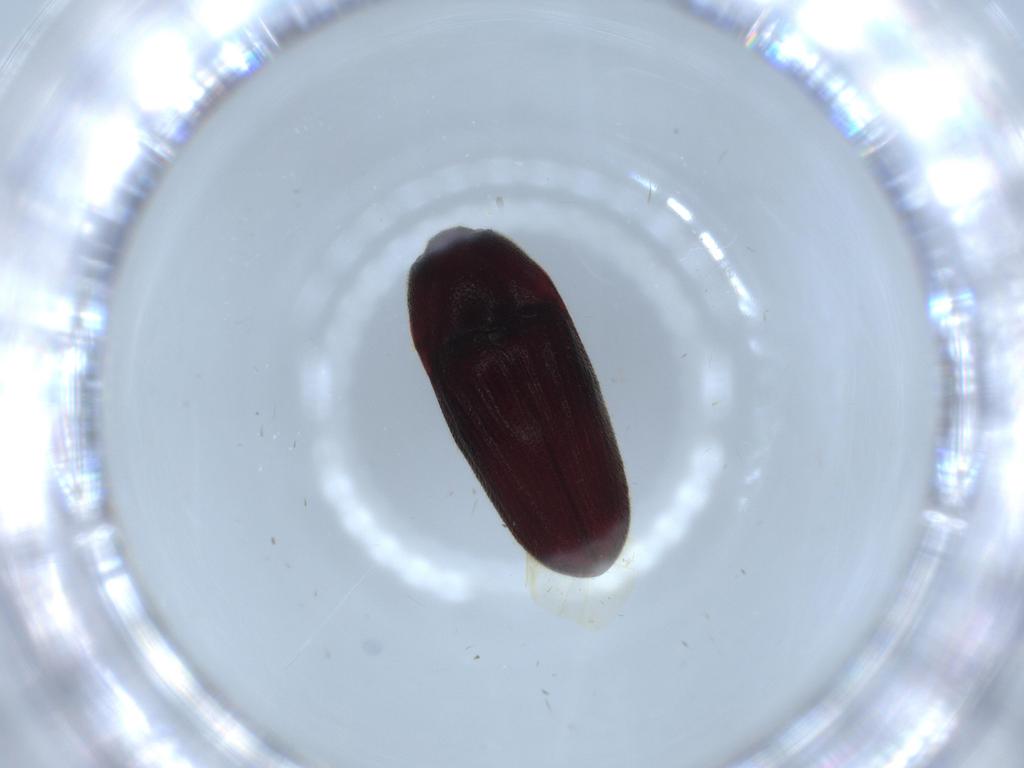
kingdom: Animalia
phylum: Arthropoda
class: Insecta
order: Coleoptera
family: Throscidae
